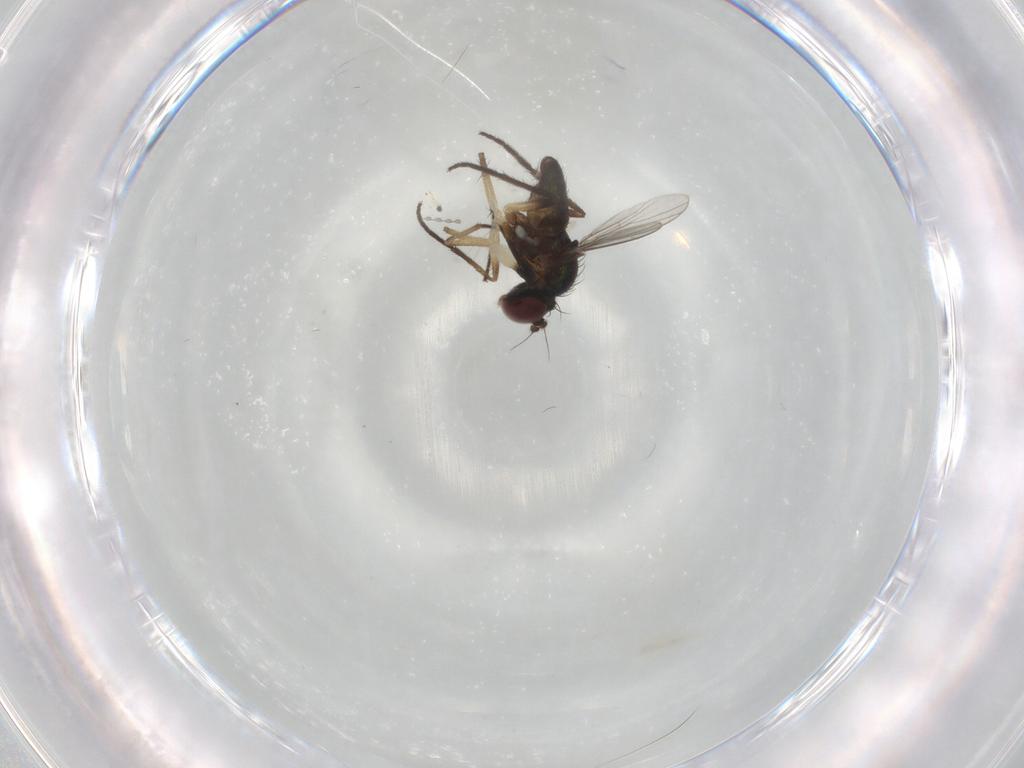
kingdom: Animalia
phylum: Arthropoda
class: Insecta
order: Diptera
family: Dolichopodidae
